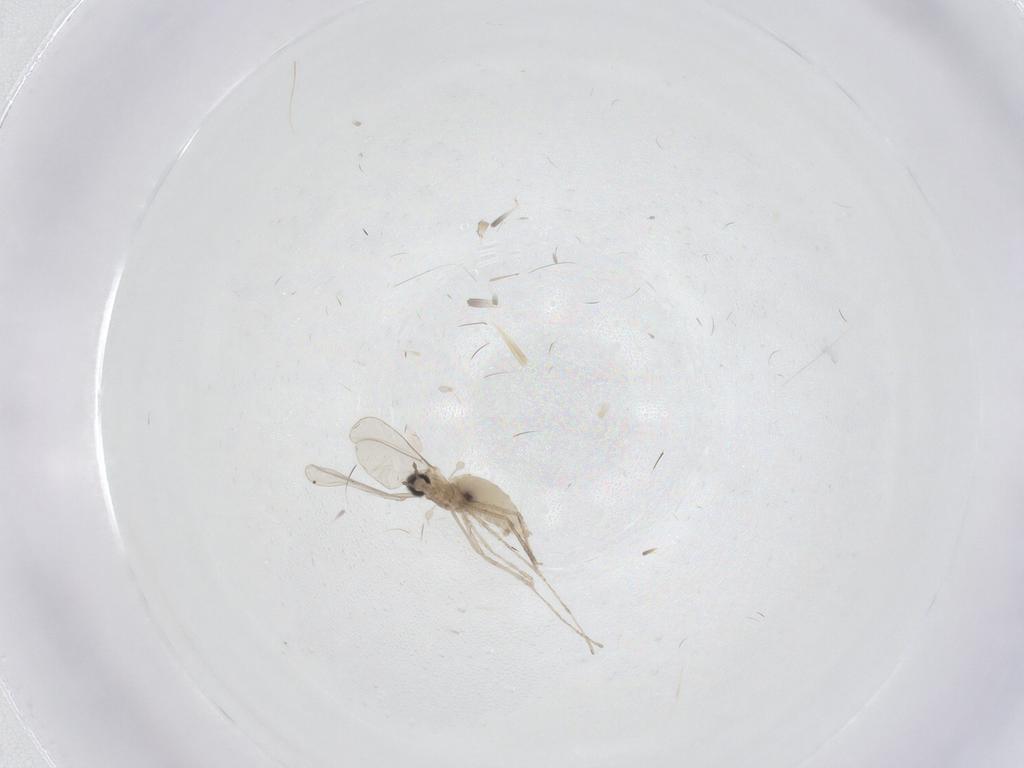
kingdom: Animalia
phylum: Arthropoda
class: Insecta
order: Diptera
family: Cecidomyiidae
